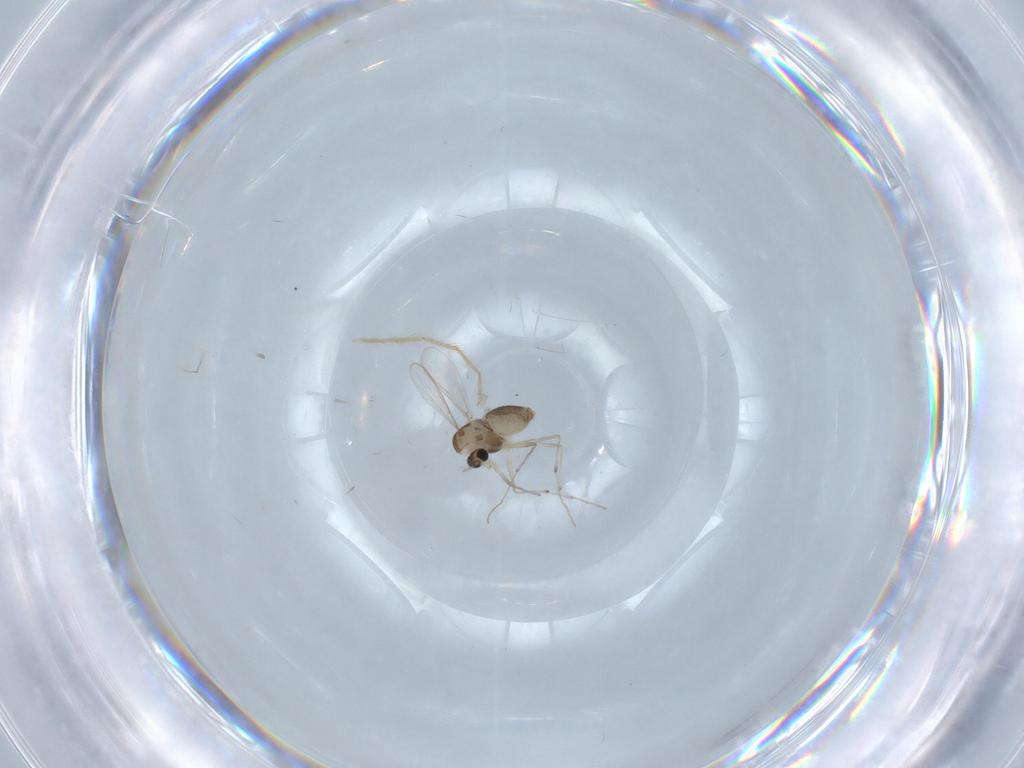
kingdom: Animalia
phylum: Arthropoda
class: Insecta
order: Diptera
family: Chironomidae
